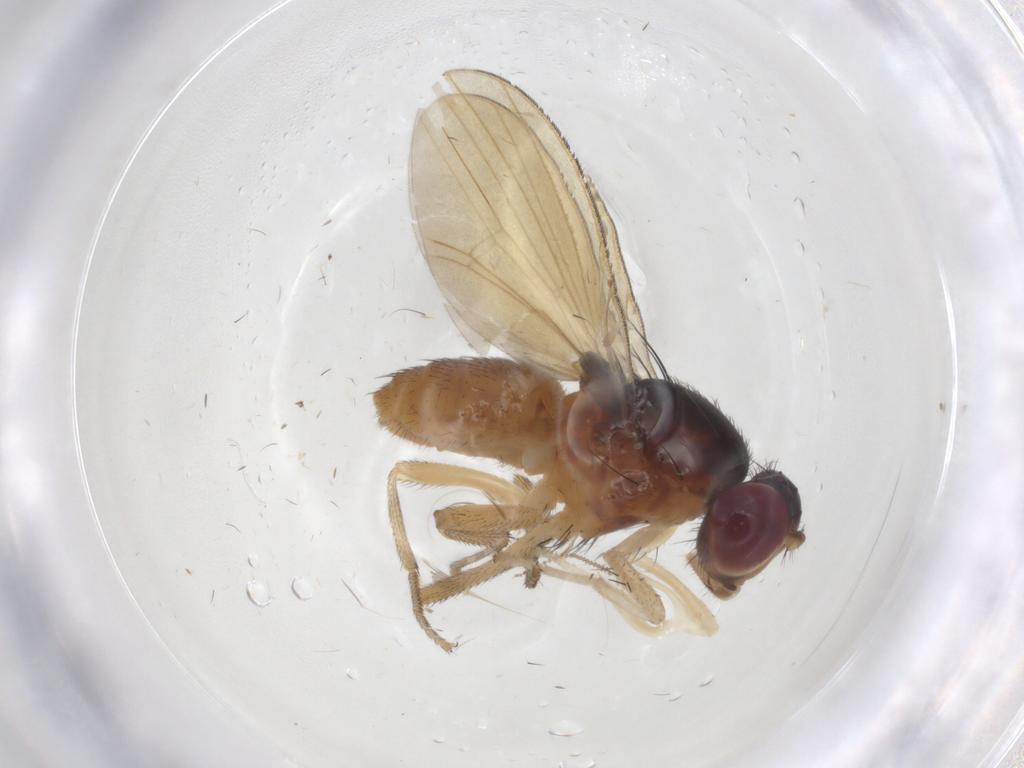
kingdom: Animalia
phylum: Arthropoda
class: Insecta
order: Diptera
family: Lauxaniidae
